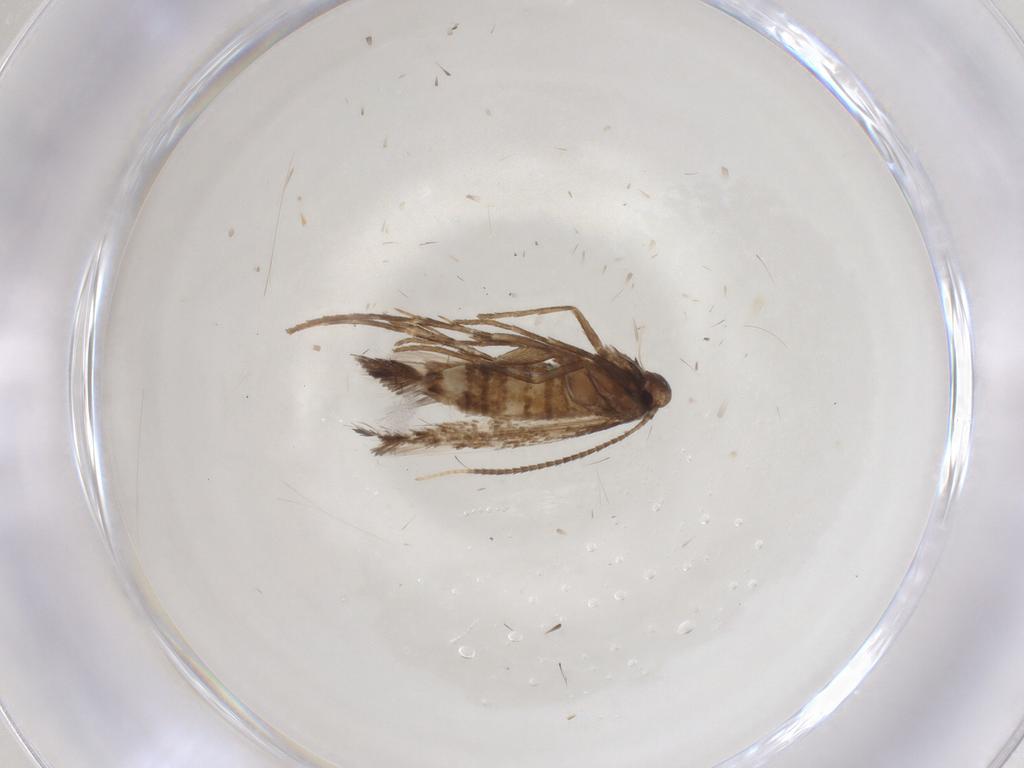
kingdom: Animalia
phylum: Arthropoda
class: Insecta
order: Lepidoptera
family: Gracillariidae
